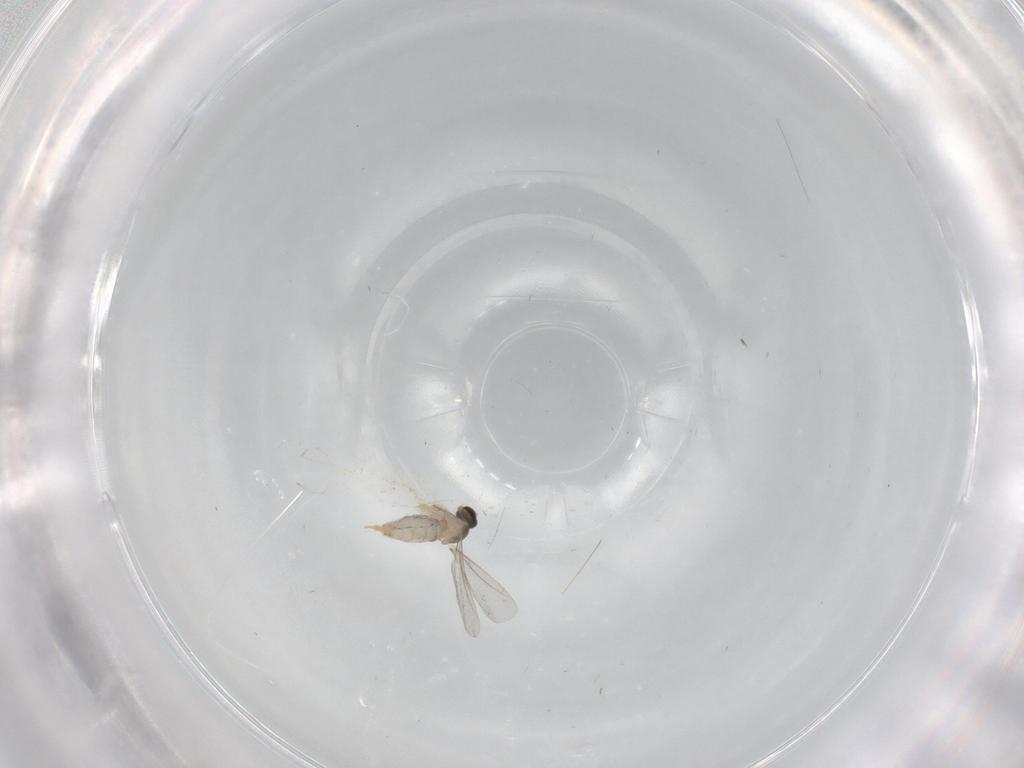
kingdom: Animalia
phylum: Arthropoda
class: Insecta
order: Diptera
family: Cecidomyiidae
